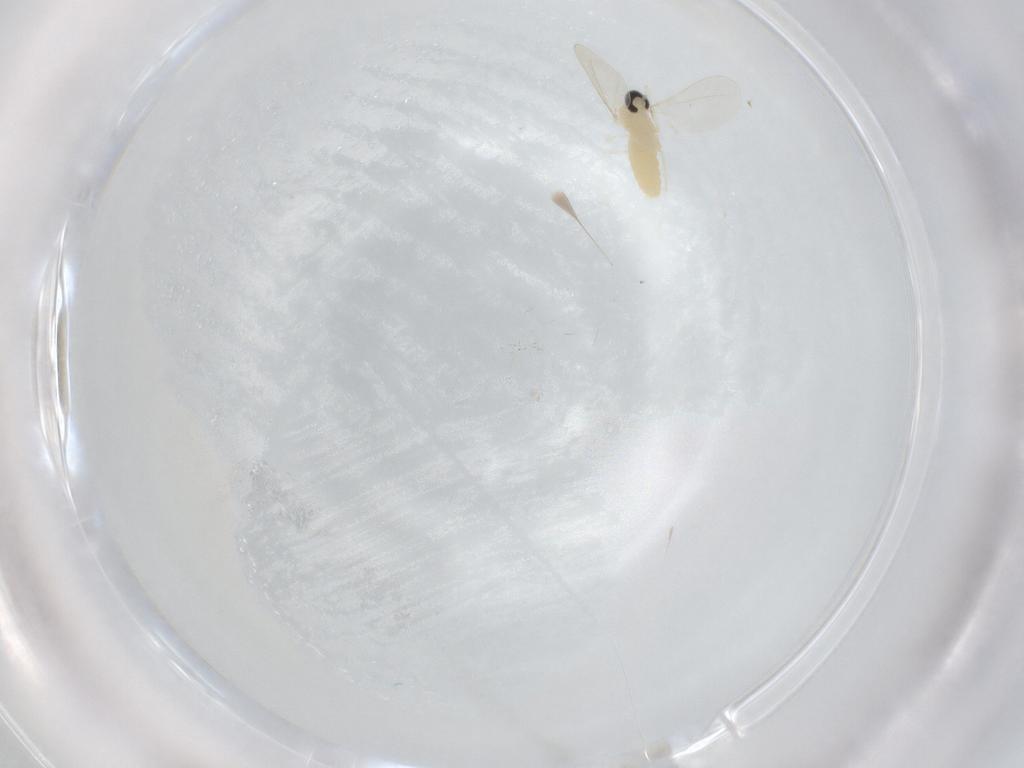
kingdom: Animalia
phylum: Arthropoda
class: Insecta
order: Diptera
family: Cecidomyiidae
